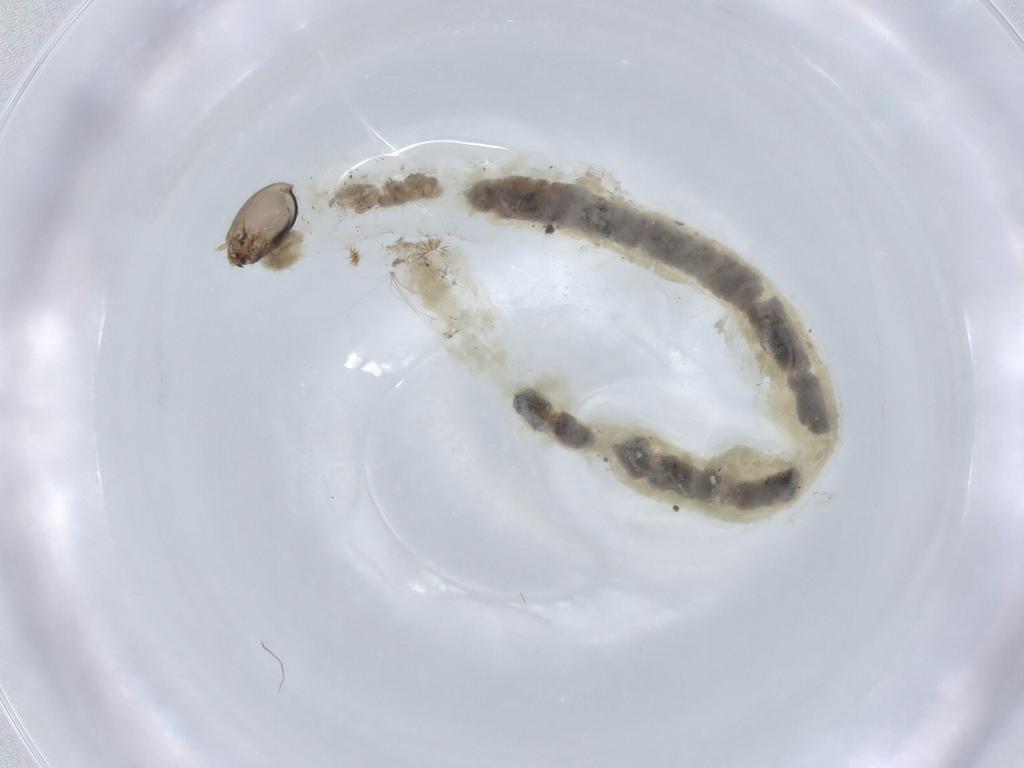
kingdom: Animalia
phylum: Arthropoda
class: Insecta
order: Diptera
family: Chironomidae
